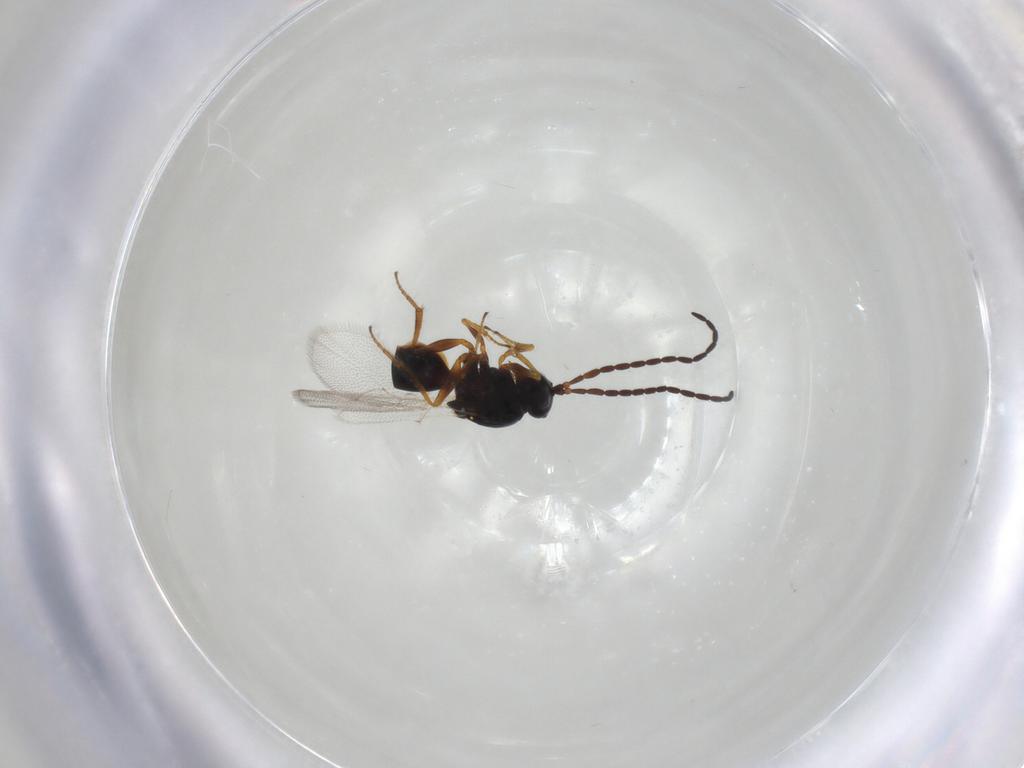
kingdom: Animalia
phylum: Arthropoda
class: Insecta
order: Hymenoptera
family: Figitidae
